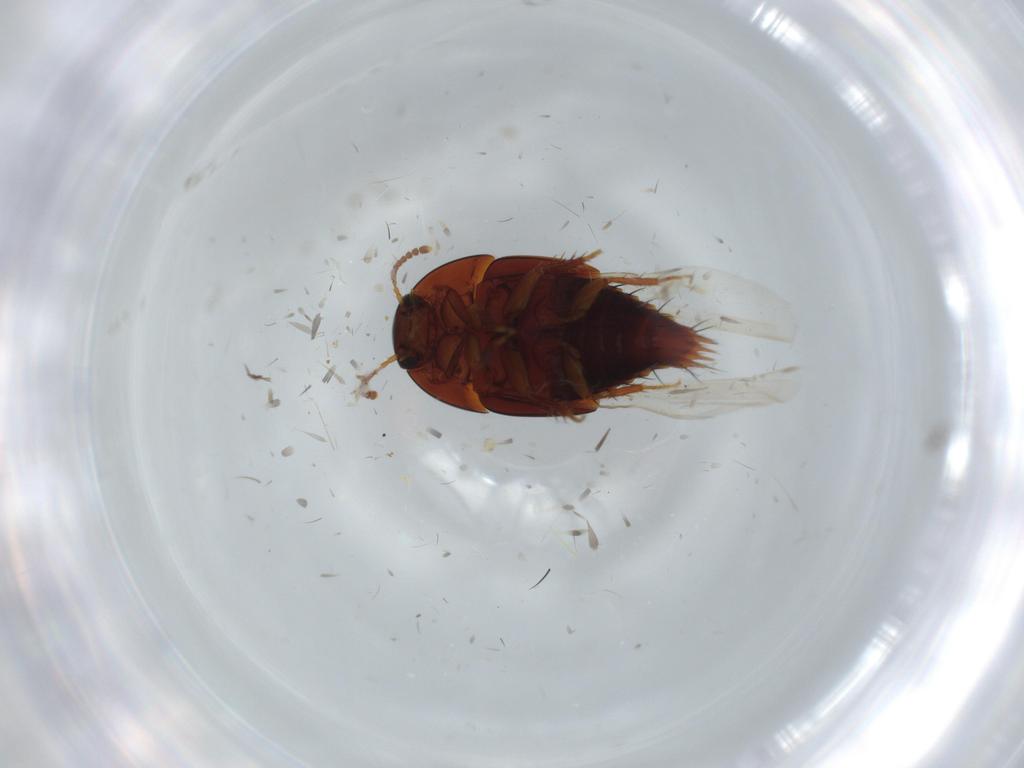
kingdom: Animalia
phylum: Arthropoda
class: Insecta
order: Coleoptera
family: Staphylinidae
